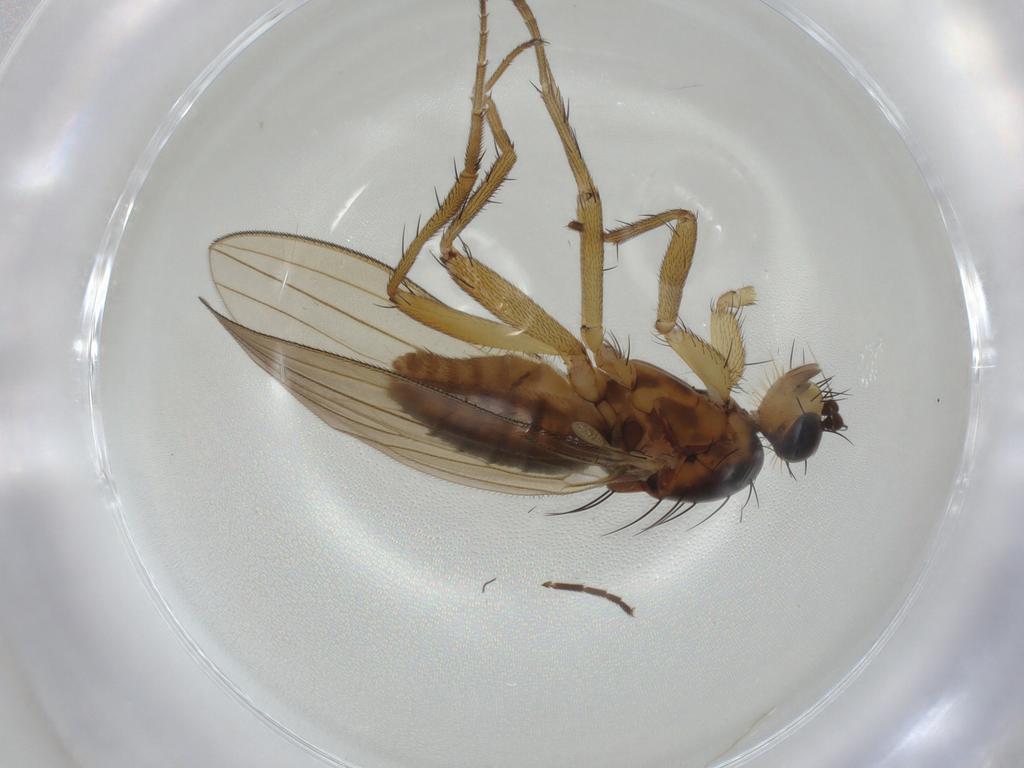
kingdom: Animalia
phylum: Arthropoda
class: Insecta
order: Diptera
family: Lonchopteridae
